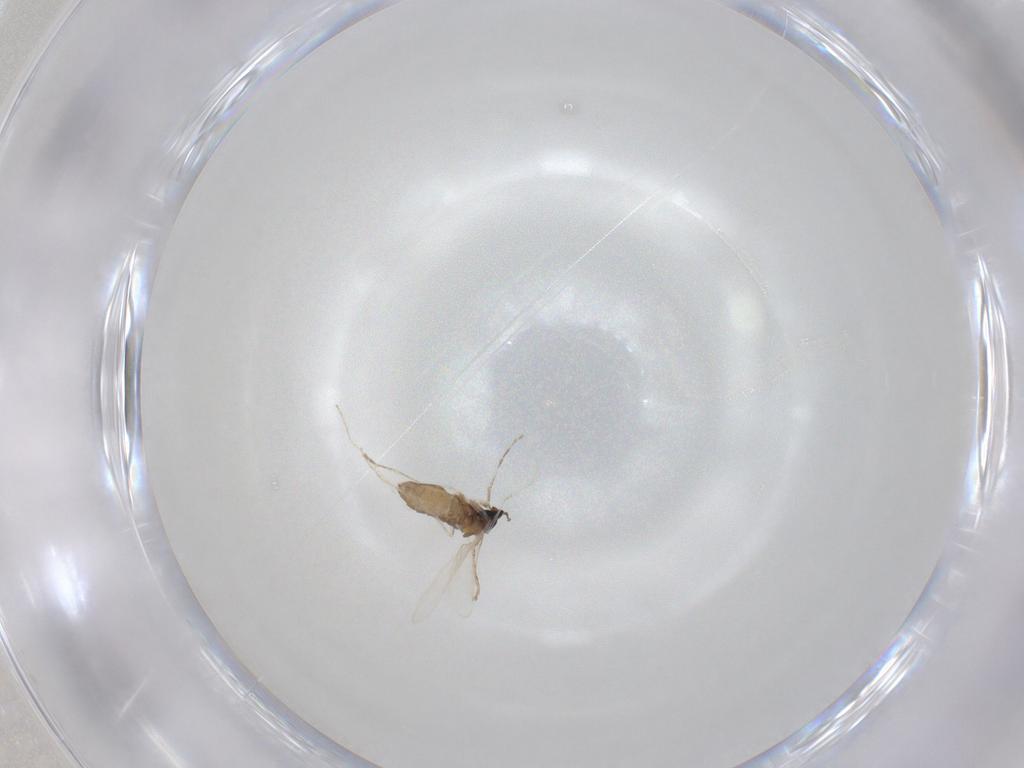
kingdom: Animalia
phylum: Arthropoda
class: Insecta
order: Diptera
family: Cecidomyiidae
